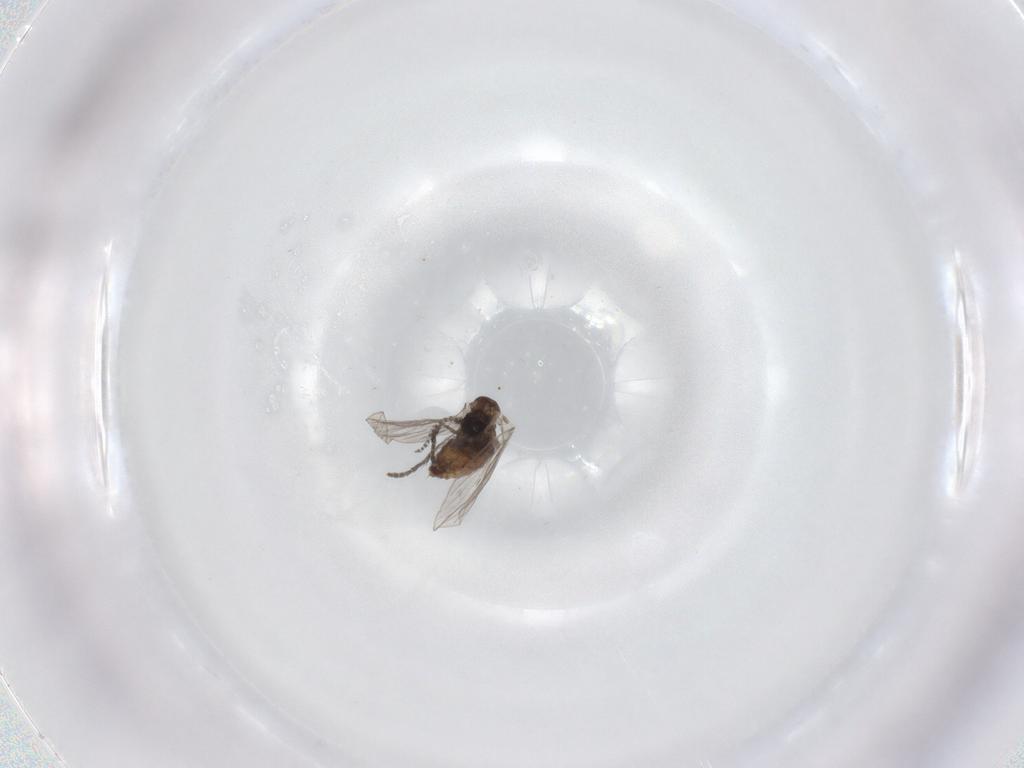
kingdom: Animalia
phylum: Arthropoda
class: Insecta
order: Diptera
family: Psychodidae
